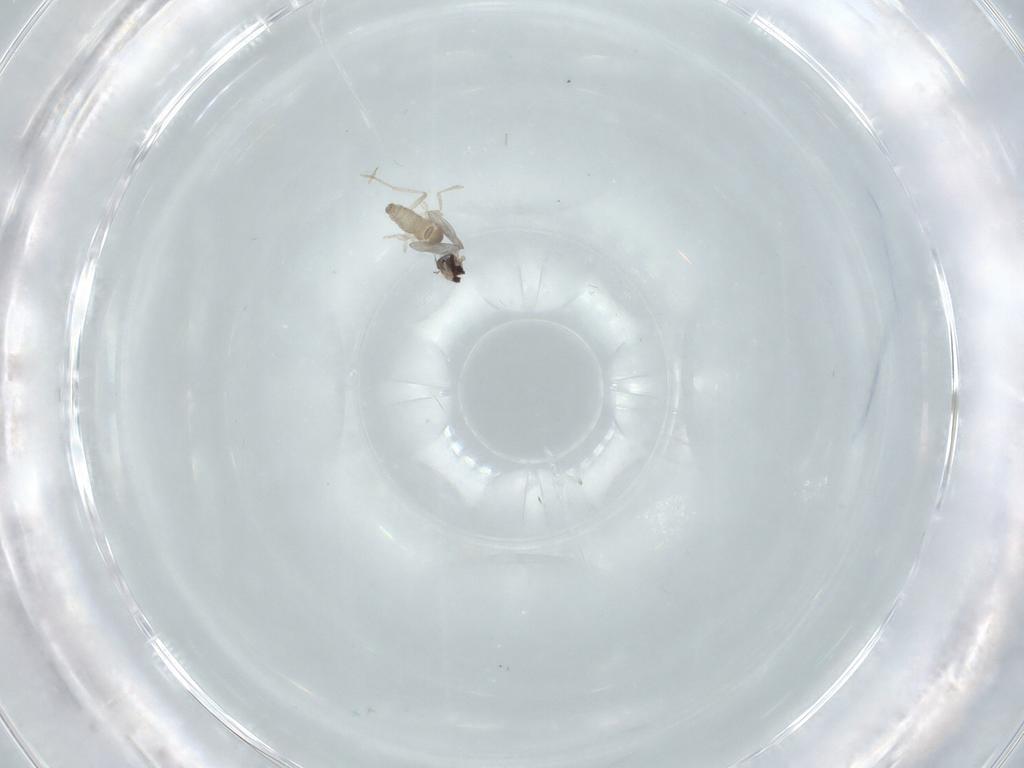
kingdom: Animalia
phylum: Arthropoda
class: Insecta
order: Diptera
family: Cecidomyiidae
